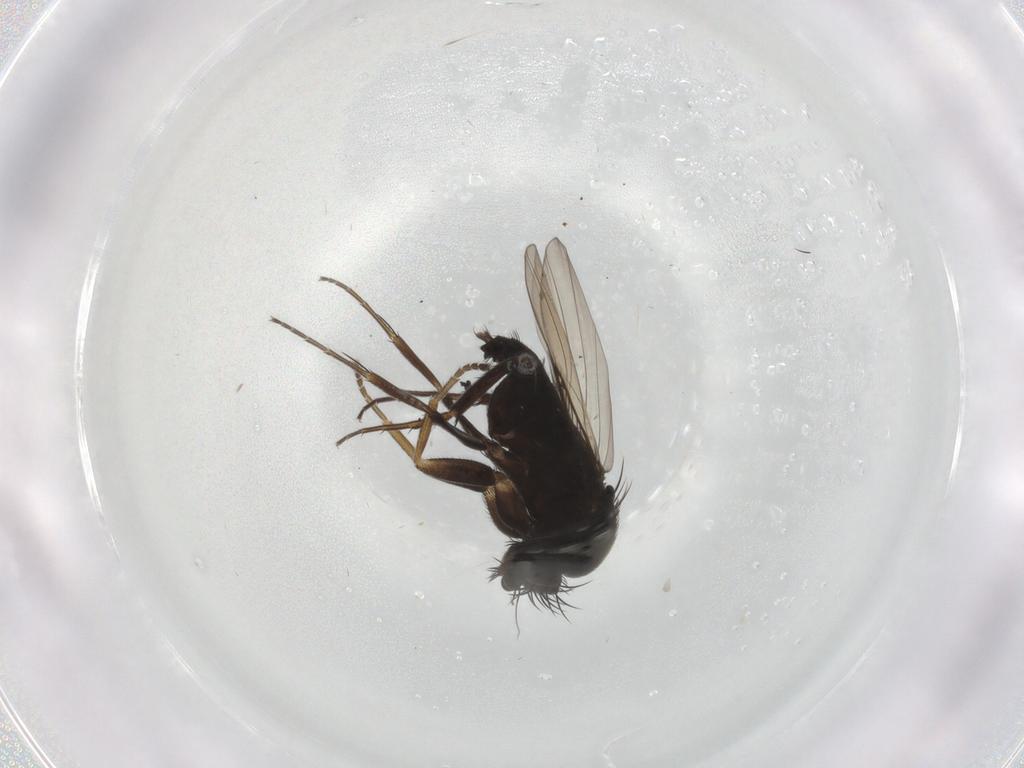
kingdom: Animalia
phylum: Arthropoda
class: Insecta
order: Diptera
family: Phoridae
